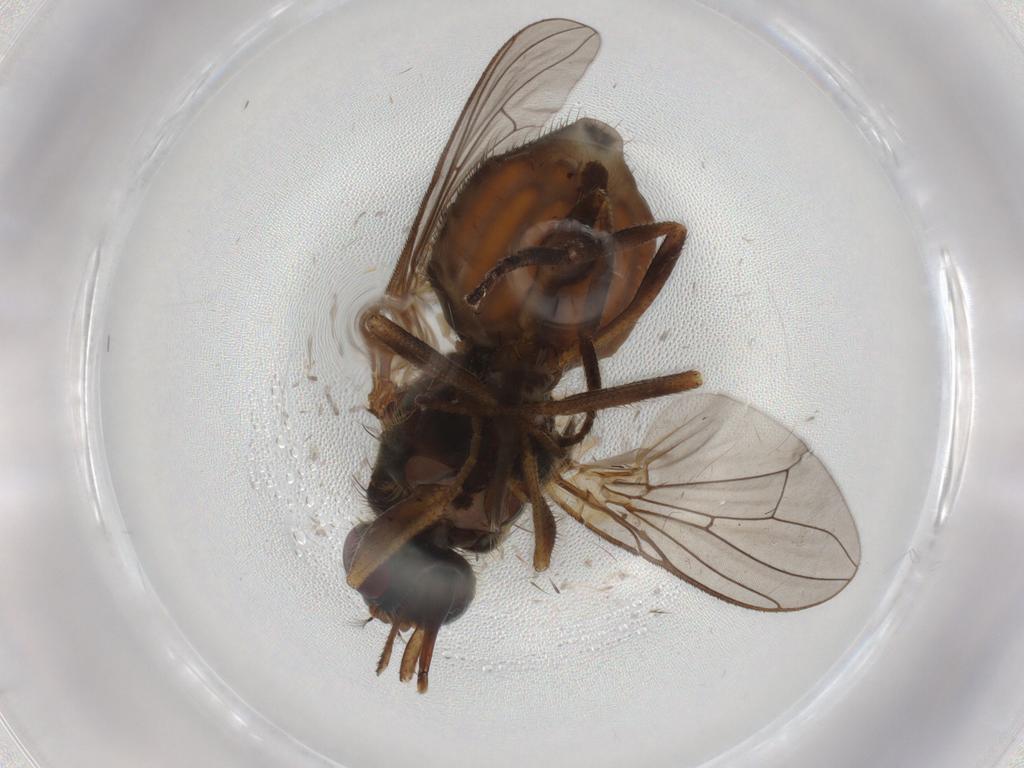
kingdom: Animalia
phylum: Arthropoda
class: Insecta
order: Diptera
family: Muscidae
